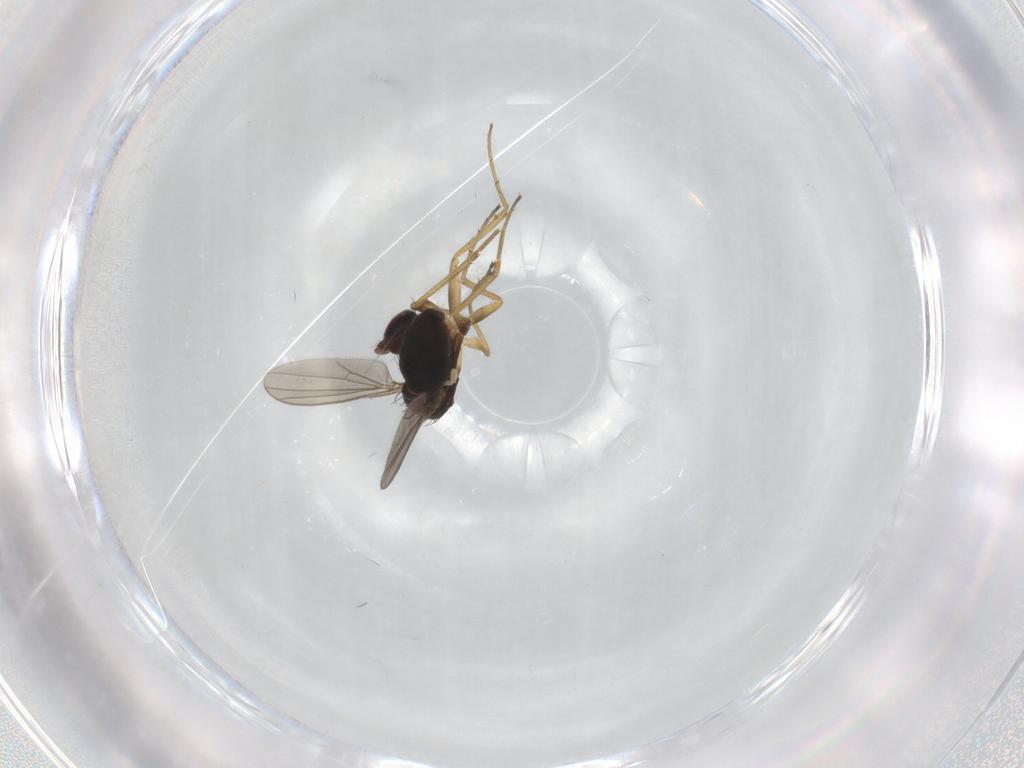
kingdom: Animalia
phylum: Arthropoda
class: Insecta
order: Diptera
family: Dolichopodidae
